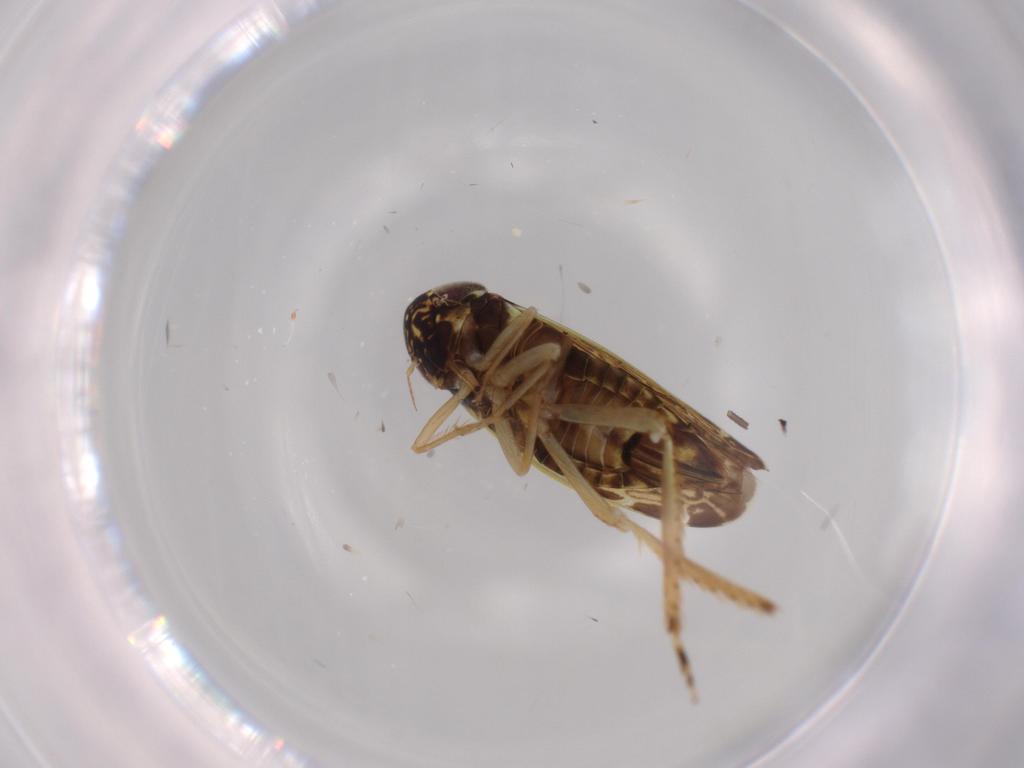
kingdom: Animalia
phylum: Arthropoda
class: Insecta
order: Hemiptera
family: Cicadellidae
